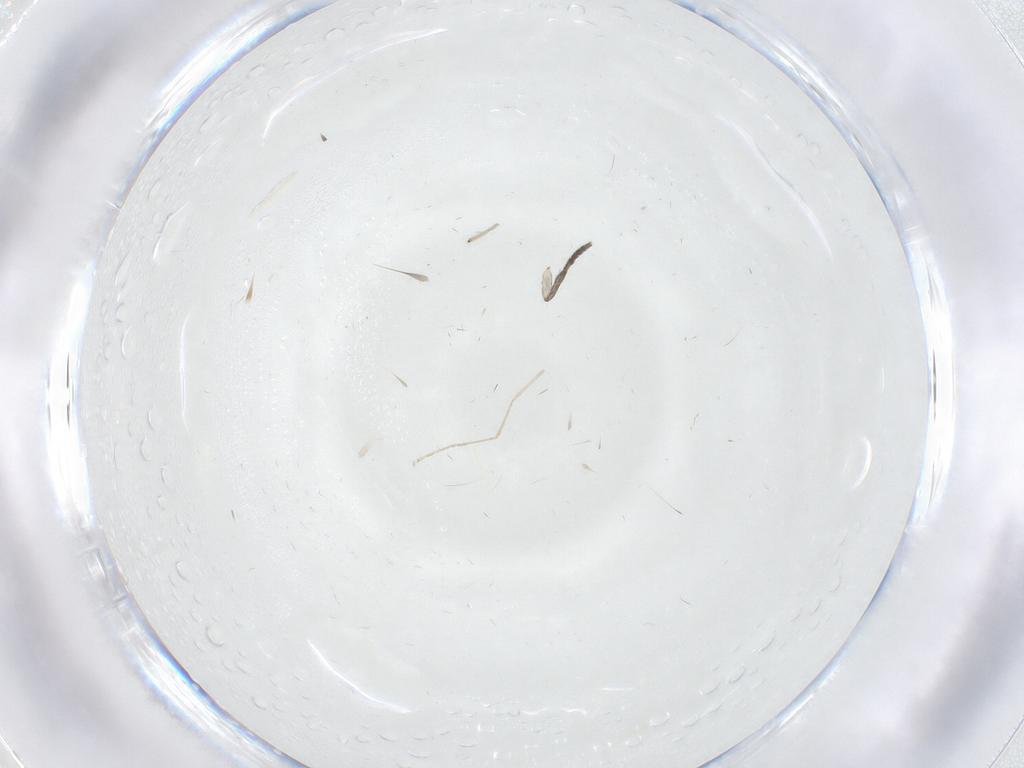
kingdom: Animalia
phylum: Arthropoda
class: Insecta
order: Diptera
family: Cecidomyiidae
